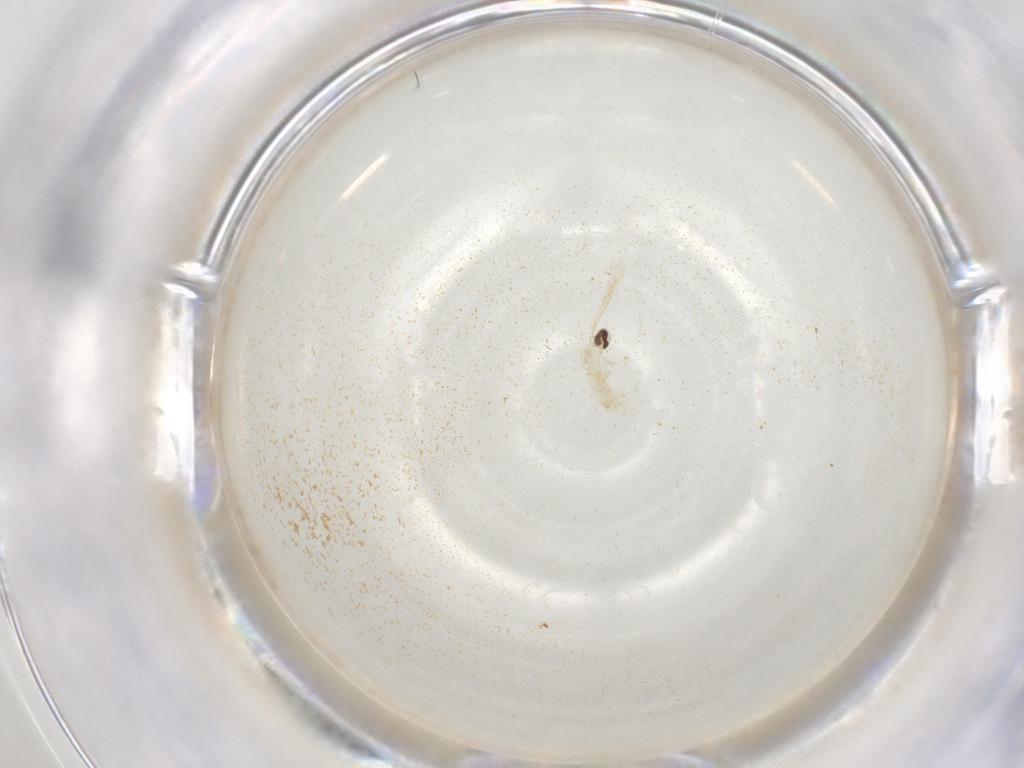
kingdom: Animalia
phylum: Arthropoda
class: Insecta
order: Diptera
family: Cecidomyiidae
